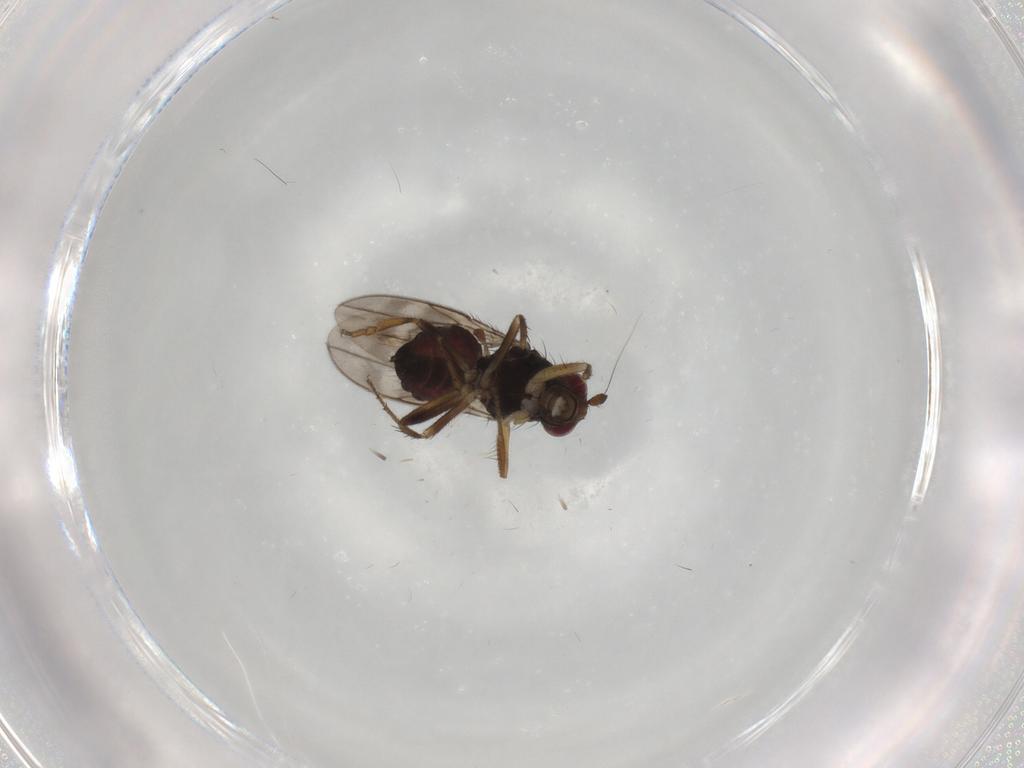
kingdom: Animalia
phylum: Arthropoda
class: Insecta
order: Diptera
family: Sphaeroceridae
